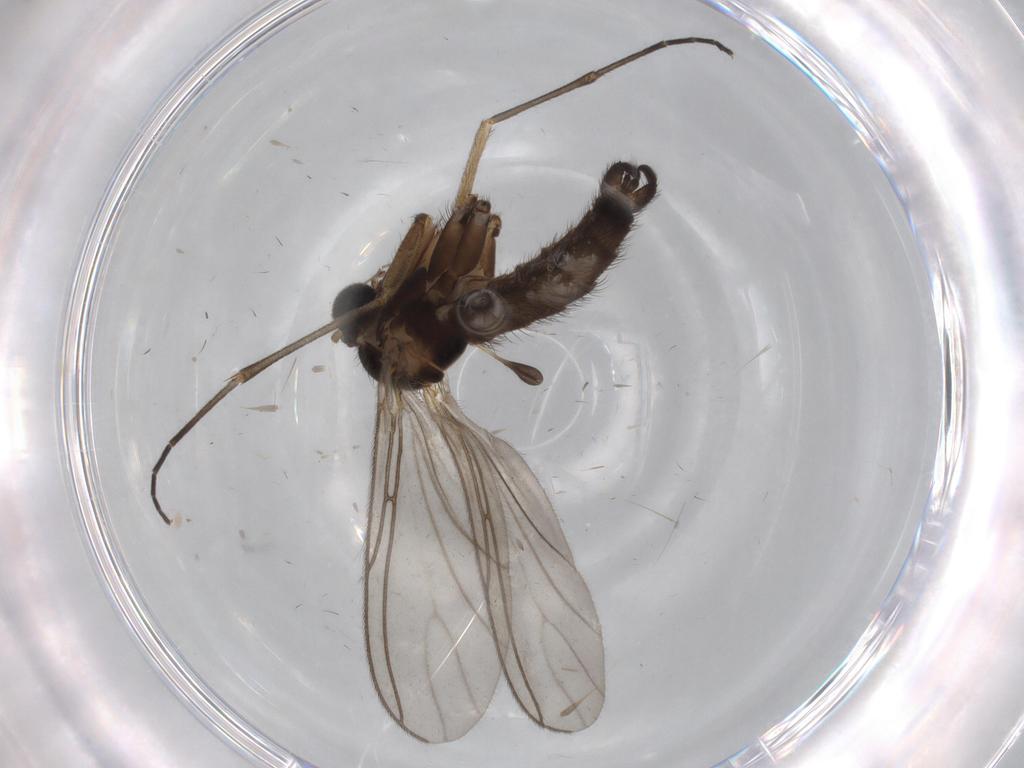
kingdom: Animalia
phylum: Arthropoda
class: Insecta
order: Diptera
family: Sciaridae
